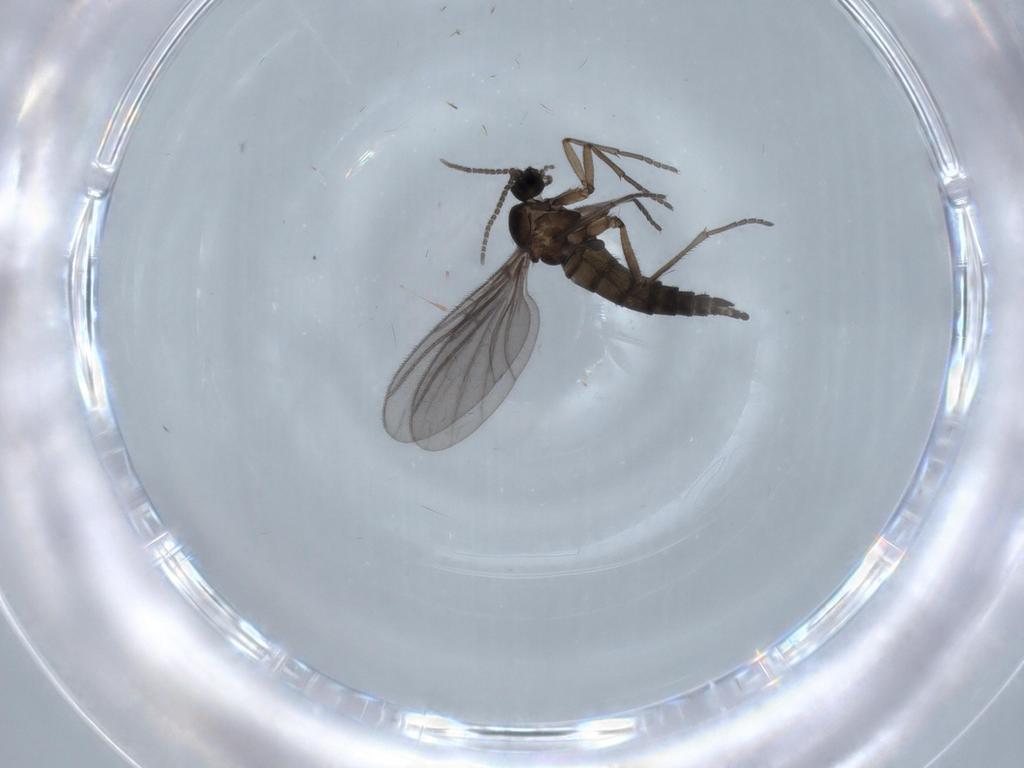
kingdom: Animalia
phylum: Arthropoda
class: Insecta
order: Diptera
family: Sciaridae
